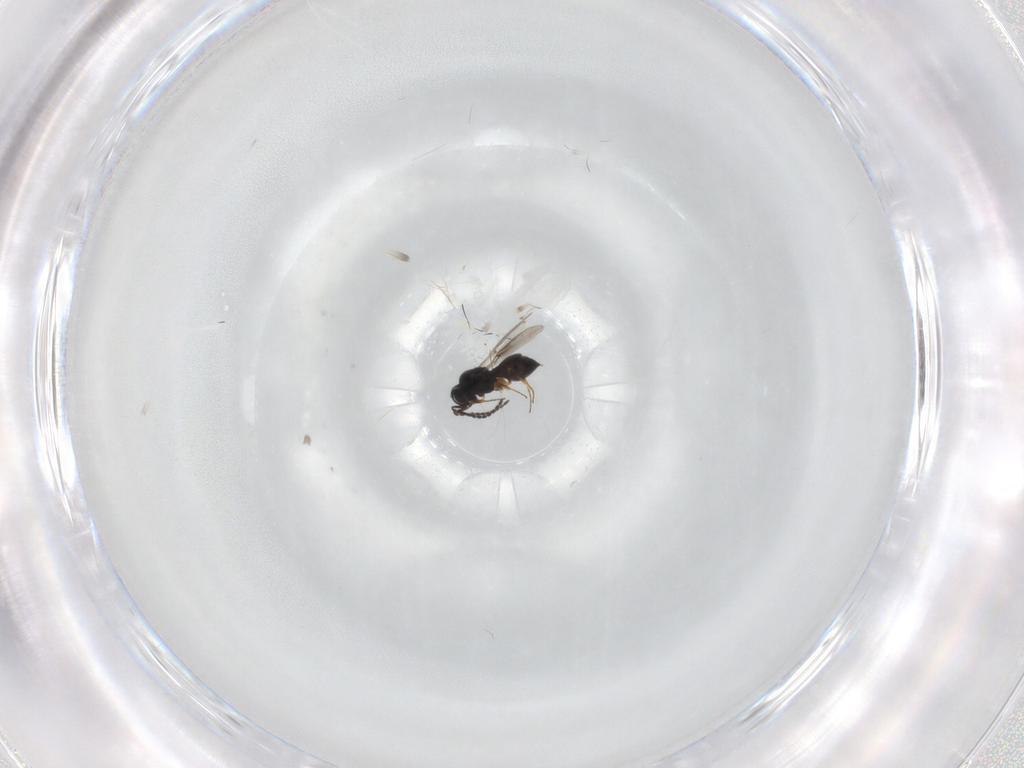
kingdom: Animalia
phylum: Arthropoda
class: Insecta
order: Hymenoptera
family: Scelionidae
